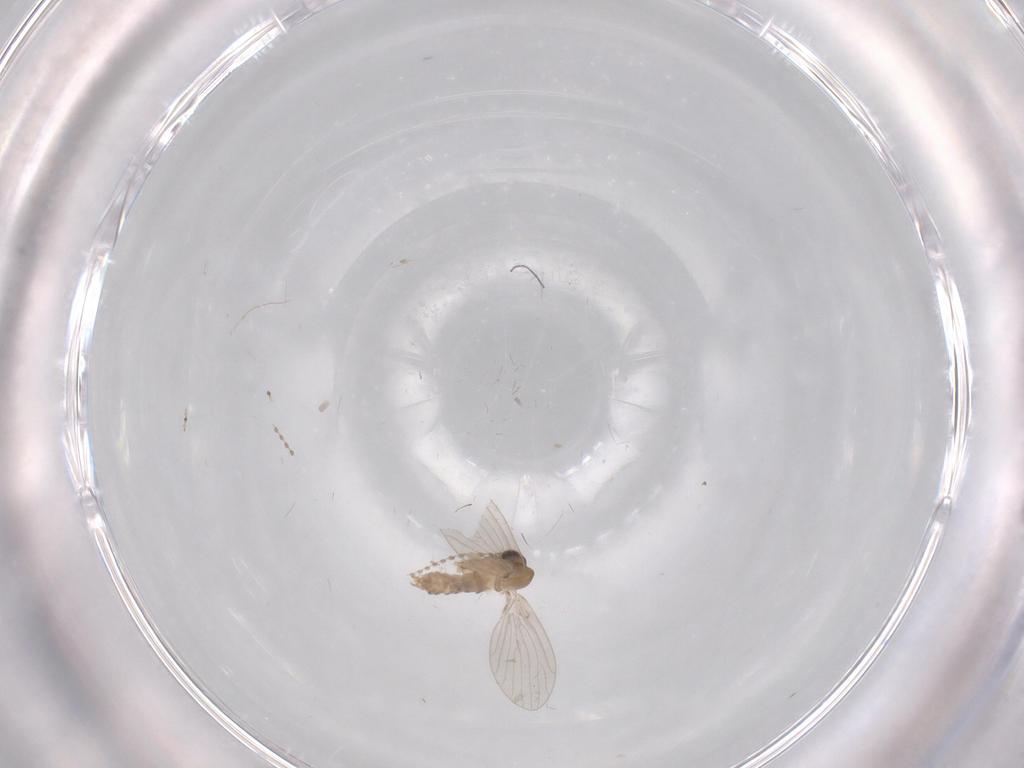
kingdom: Animalia
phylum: Arthropoda
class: Insecta
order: Diptera
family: Psychodidae
